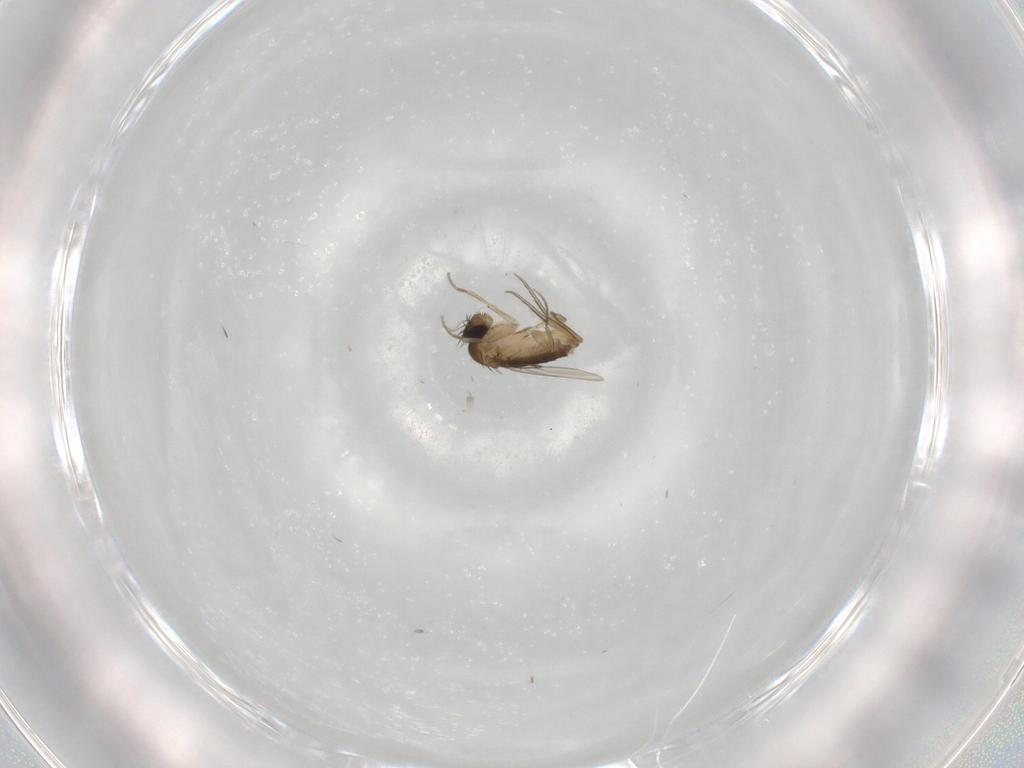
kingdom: Animalia
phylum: Arthropoda
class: Insecta
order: Diptera
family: Phoridae
